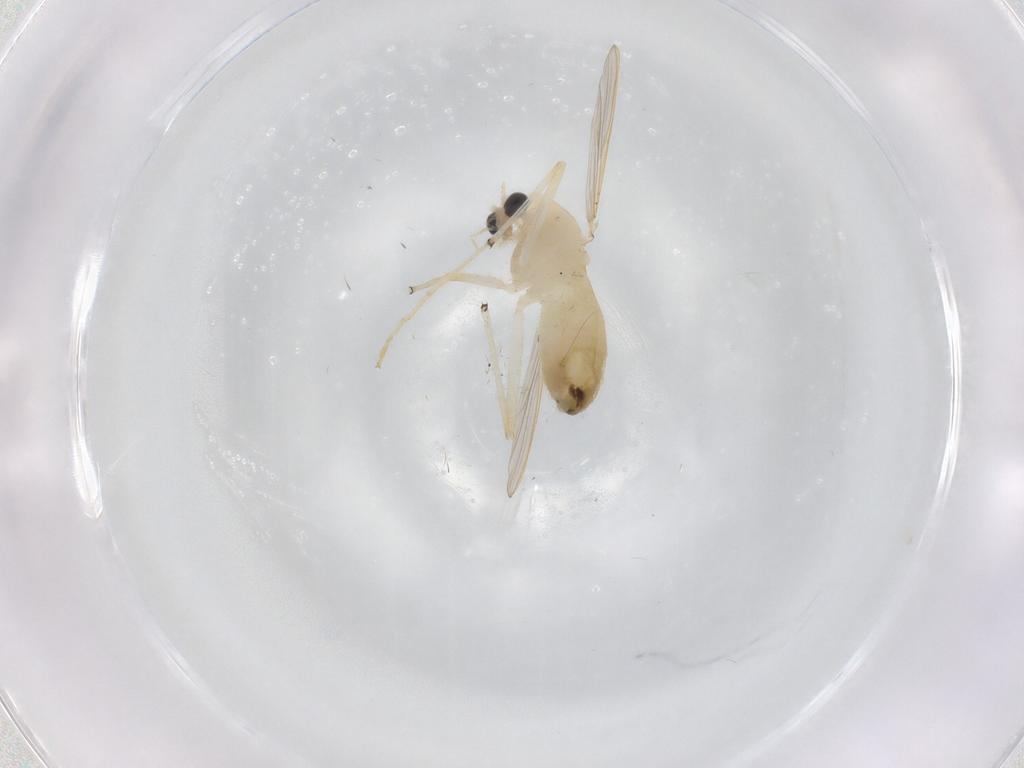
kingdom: Animalia
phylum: Arthropoda
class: Insecta
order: Diptera
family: Chironomidae
